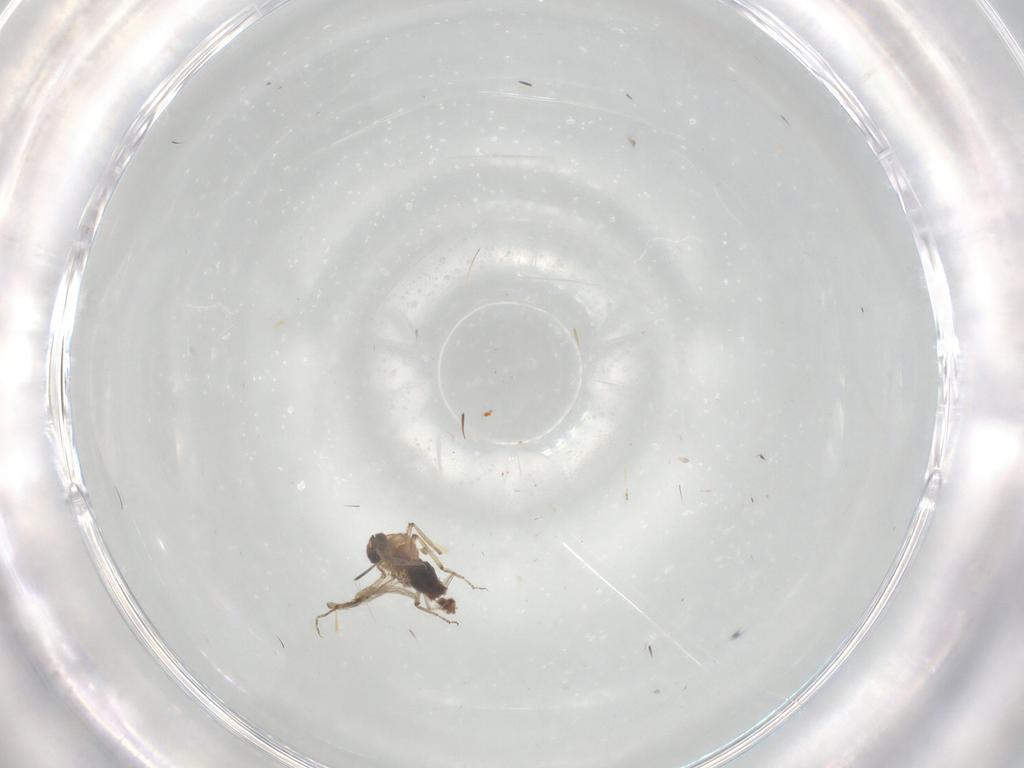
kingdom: Animalia
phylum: Arthropoda
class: Insecta
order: Diptera
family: Ceratopogonidae
